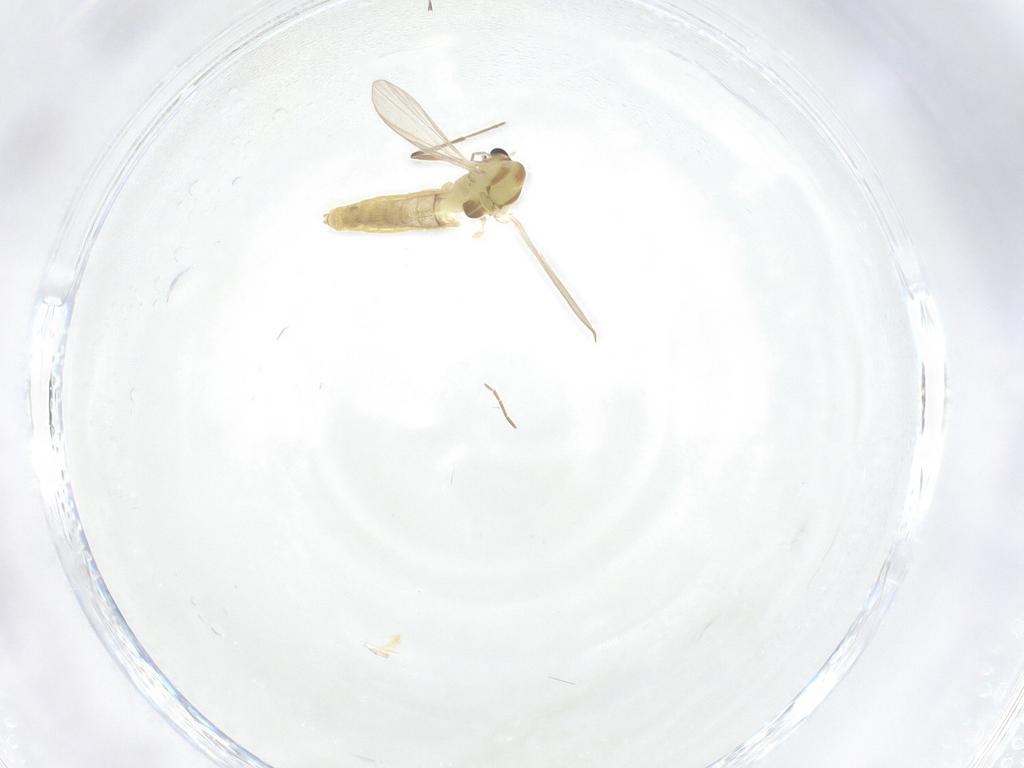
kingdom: Animalia
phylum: Arthropoda
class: Insecta
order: Diptera
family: Chironomidae
